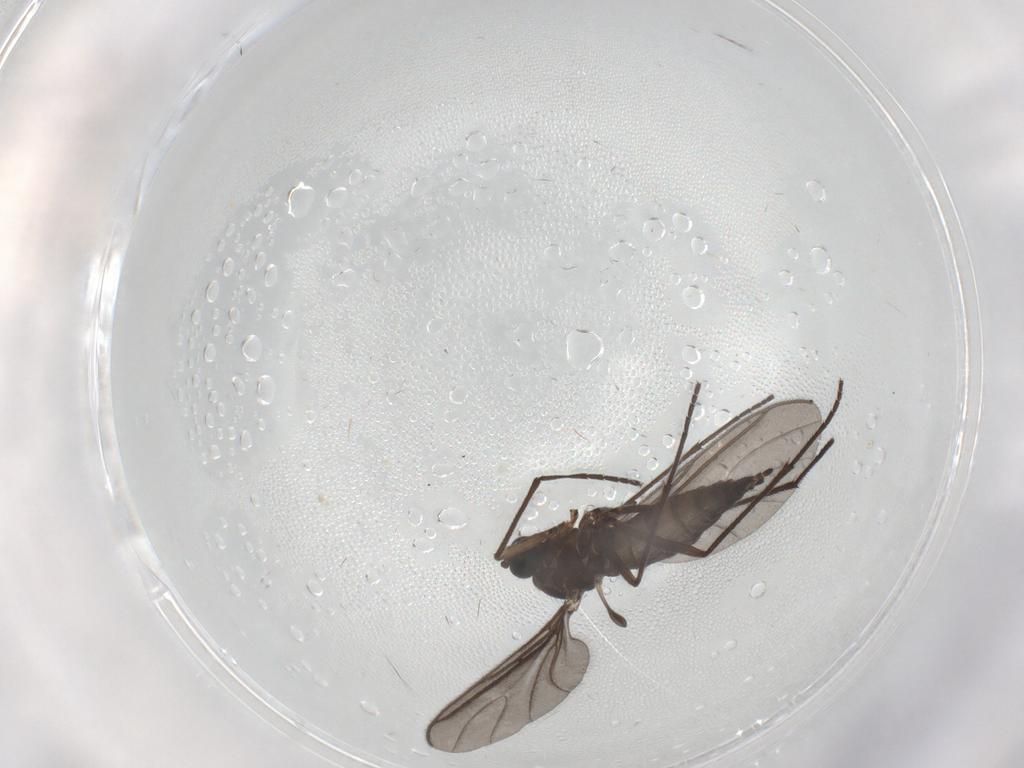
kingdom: Animalia
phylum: Arthropoda
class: Insecta
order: Diptera
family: Sciaridae
